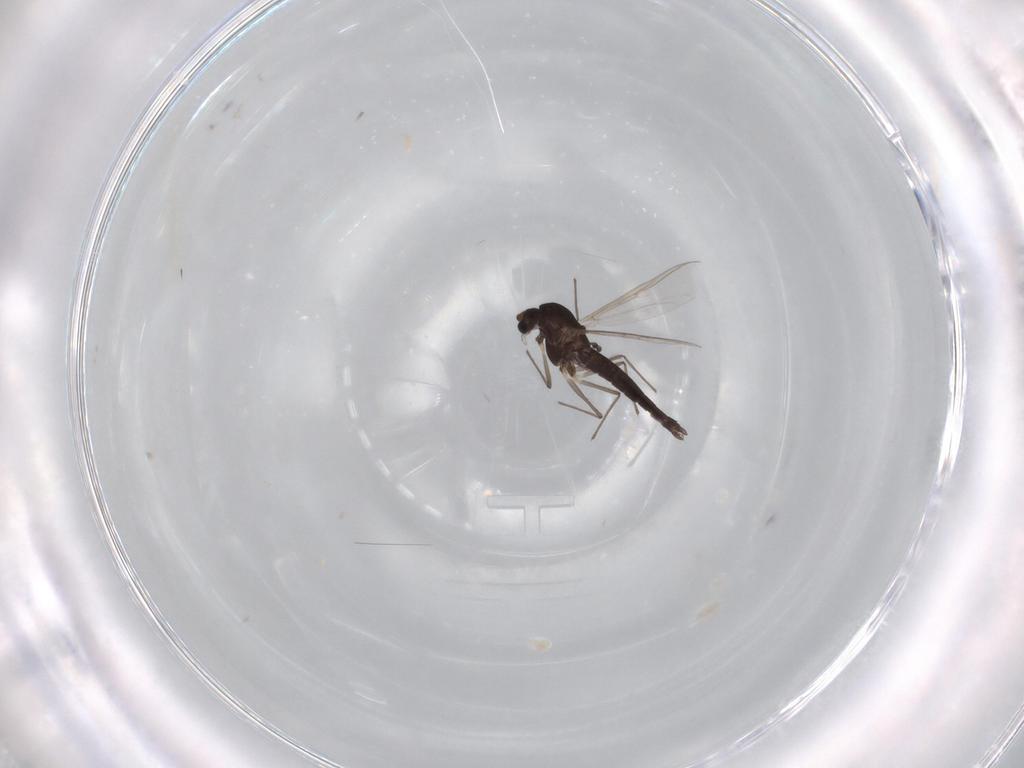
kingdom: Animalia
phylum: Arthropoda
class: Insecta
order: Diptera
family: Chironomidae
